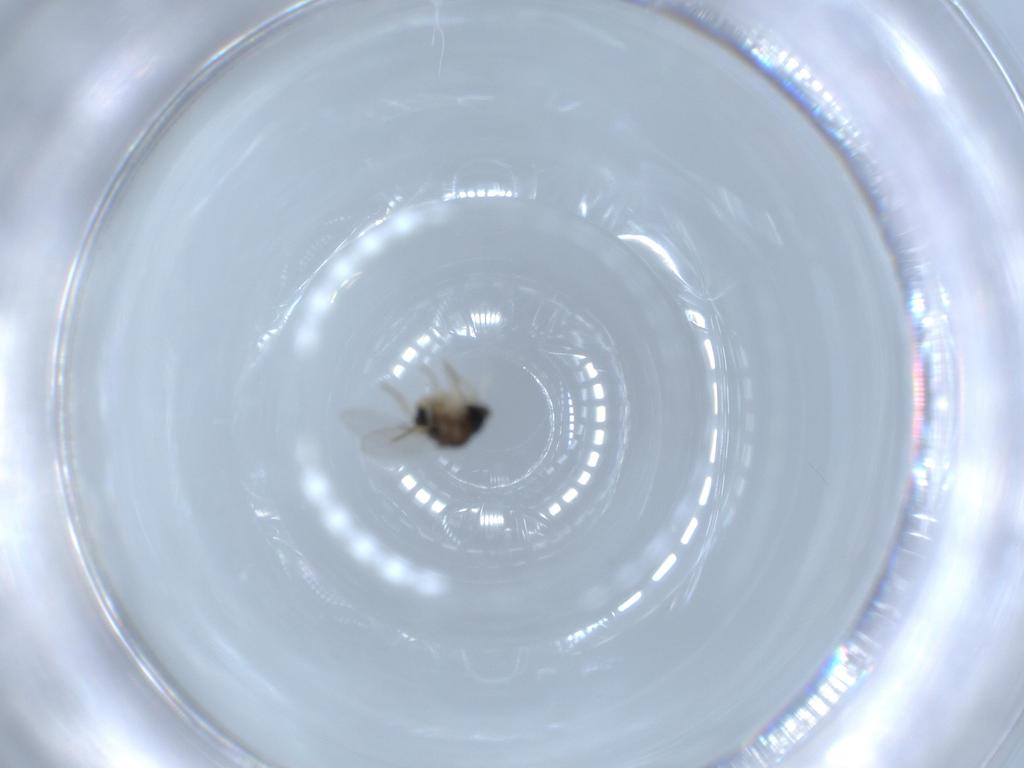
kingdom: Animalia
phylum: Arthropoda
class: Insecta
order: Diptera
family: Phoridae
